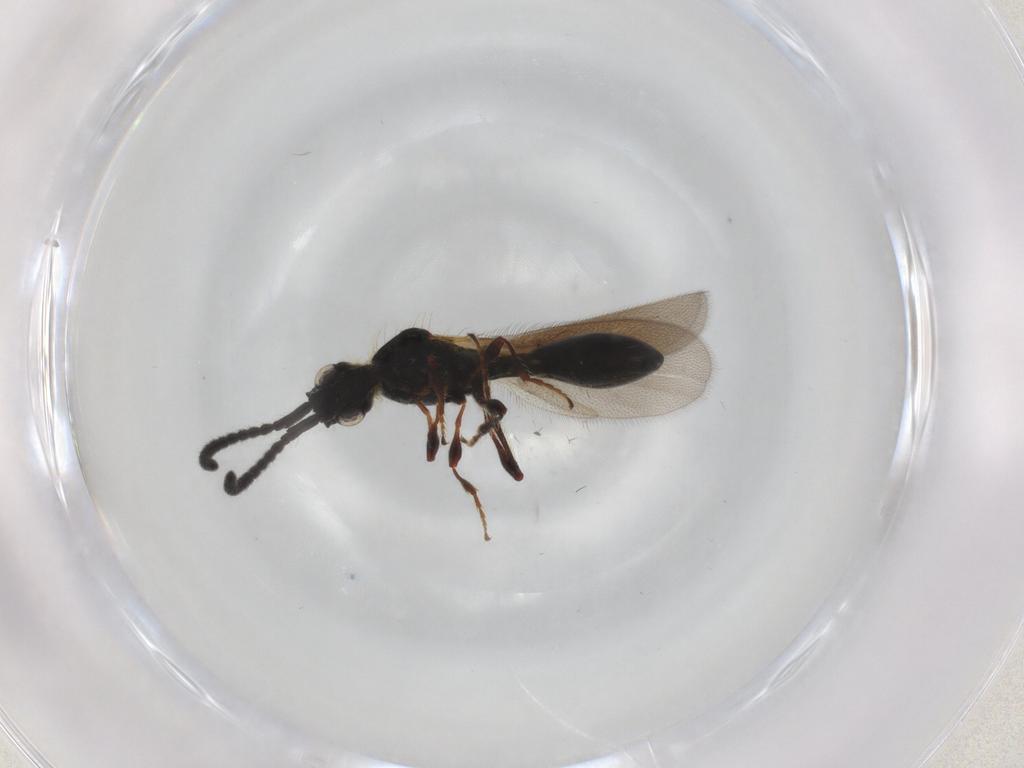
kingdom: Animalia
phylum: Arthropoda
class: Insecta
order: Hymenoptera
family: Diapriidae
